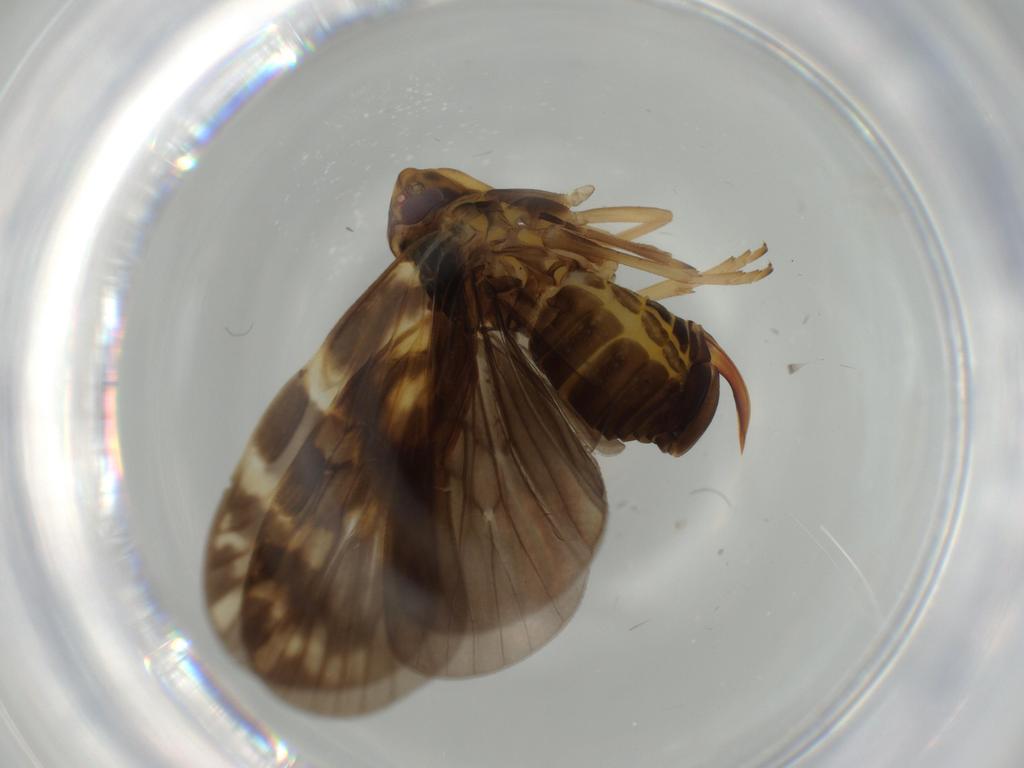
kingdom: Animalia
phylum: Arthropoda
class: Insecta
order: Hemiptera
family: Cixiidae
